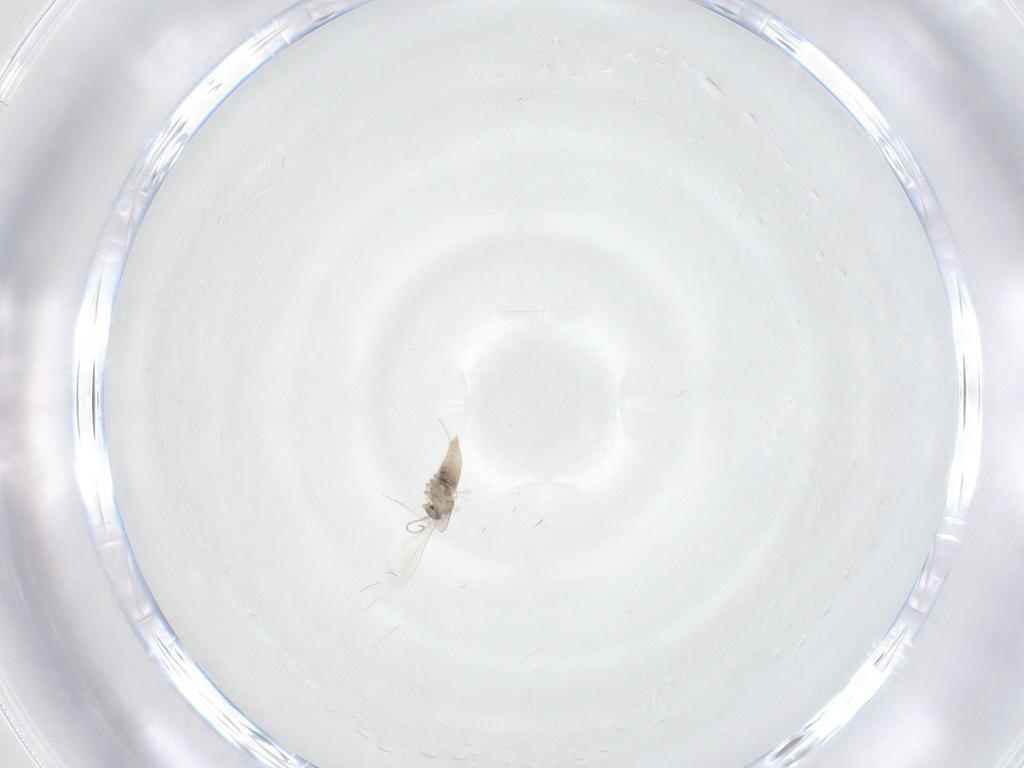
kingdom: Animalia
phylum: Arthropoda
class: Insecta
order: Diptera
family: Cecidomyiidae
